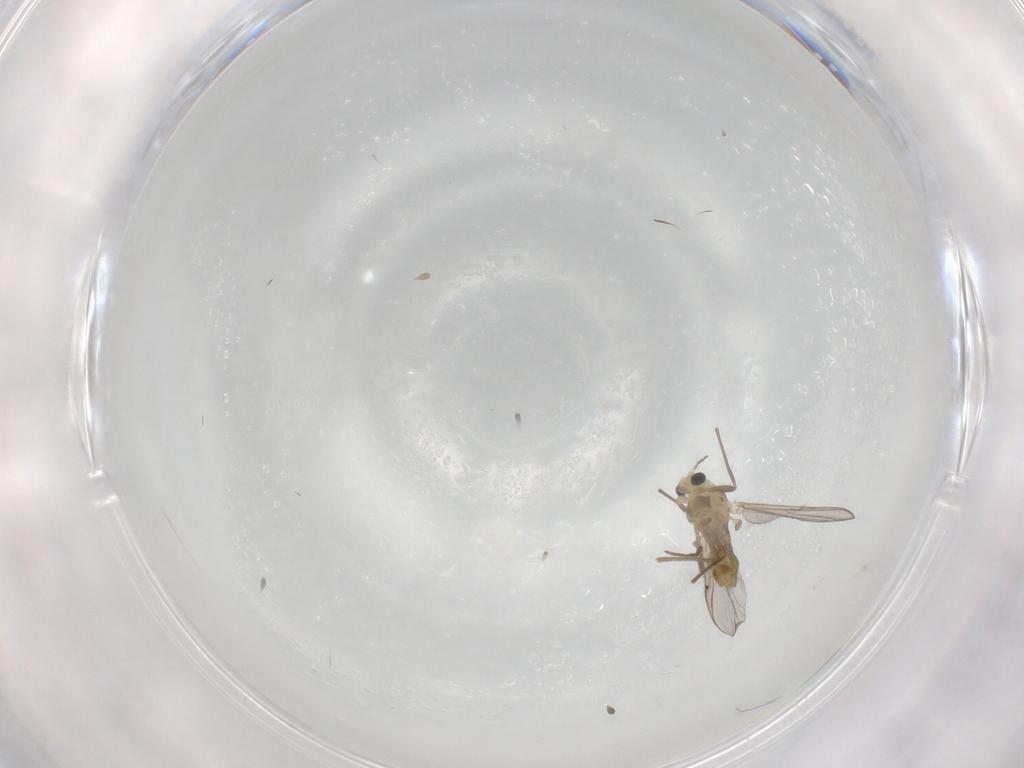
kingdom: Animalia
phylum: Arthropoda
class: Insecta
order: Diptera
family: Chironomidae
